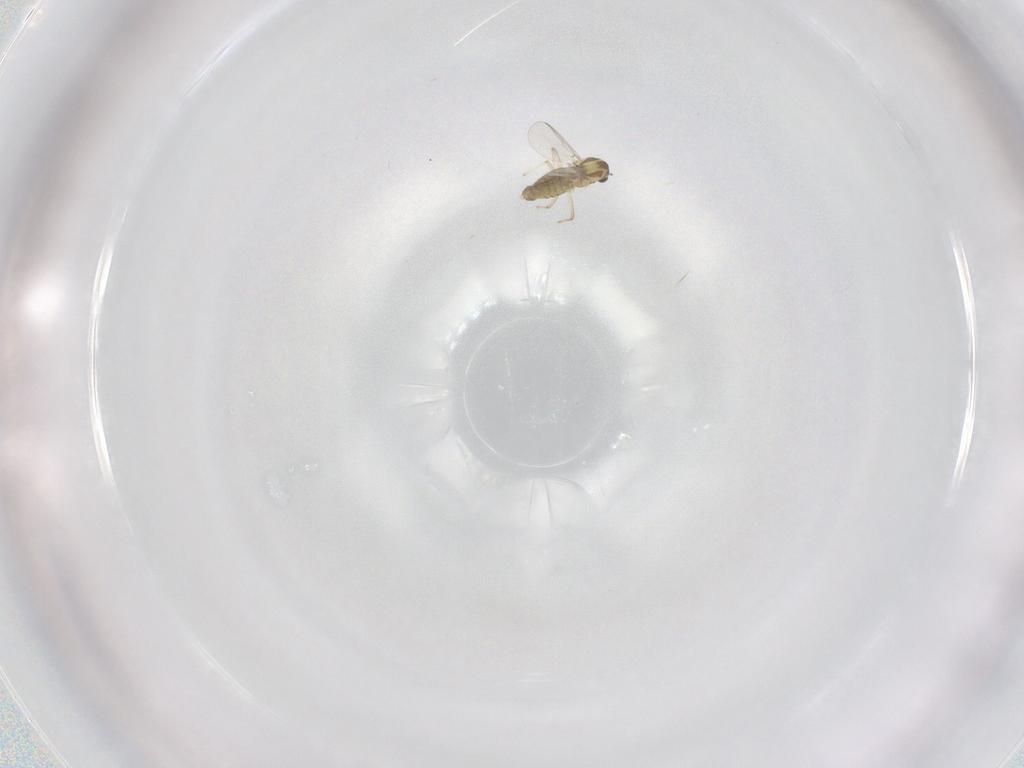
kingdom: Animalia
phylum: Arthropoda
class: Insecta
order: Diptera
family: Chironomidae
